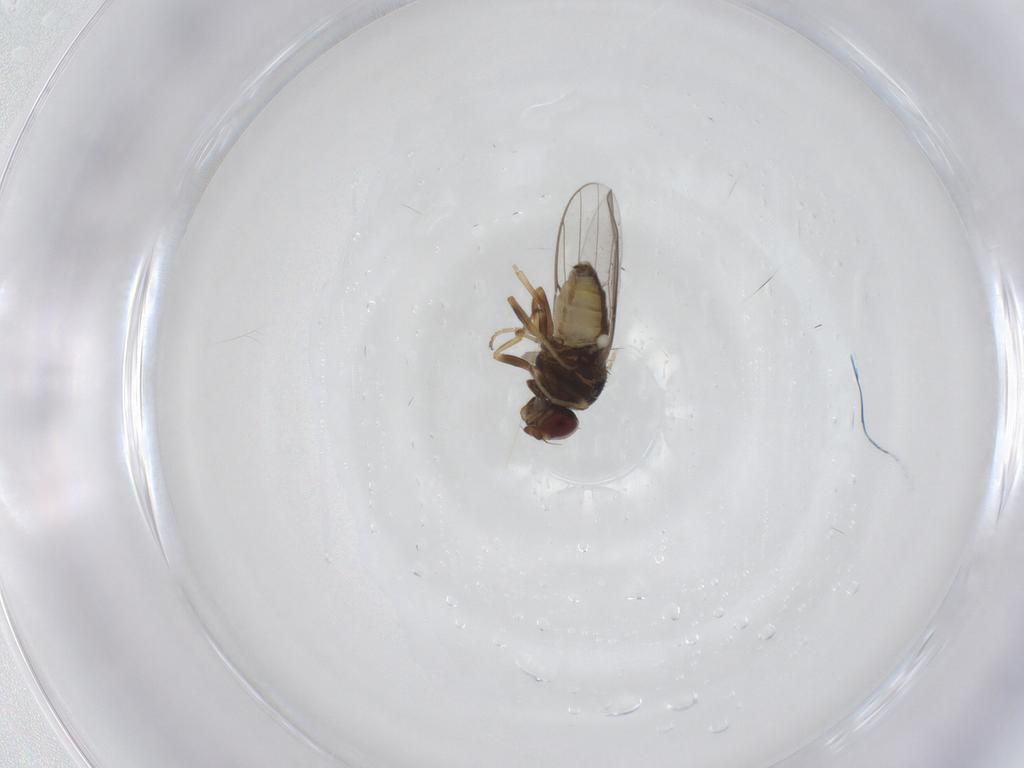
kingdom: Animalia
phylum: Arthropoda
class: Insecta
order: Diptera
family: Chloropidae
